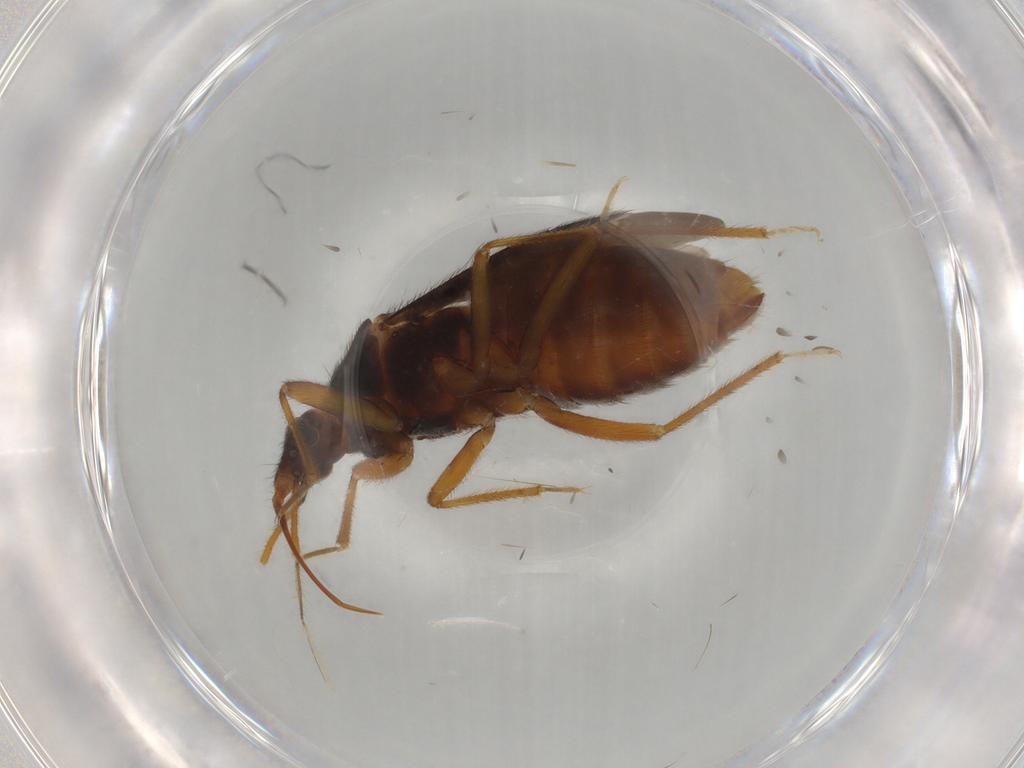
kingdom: Animalia
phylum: Arthropoda
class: Insecta
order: Hemiptera
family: Anthocoridae
